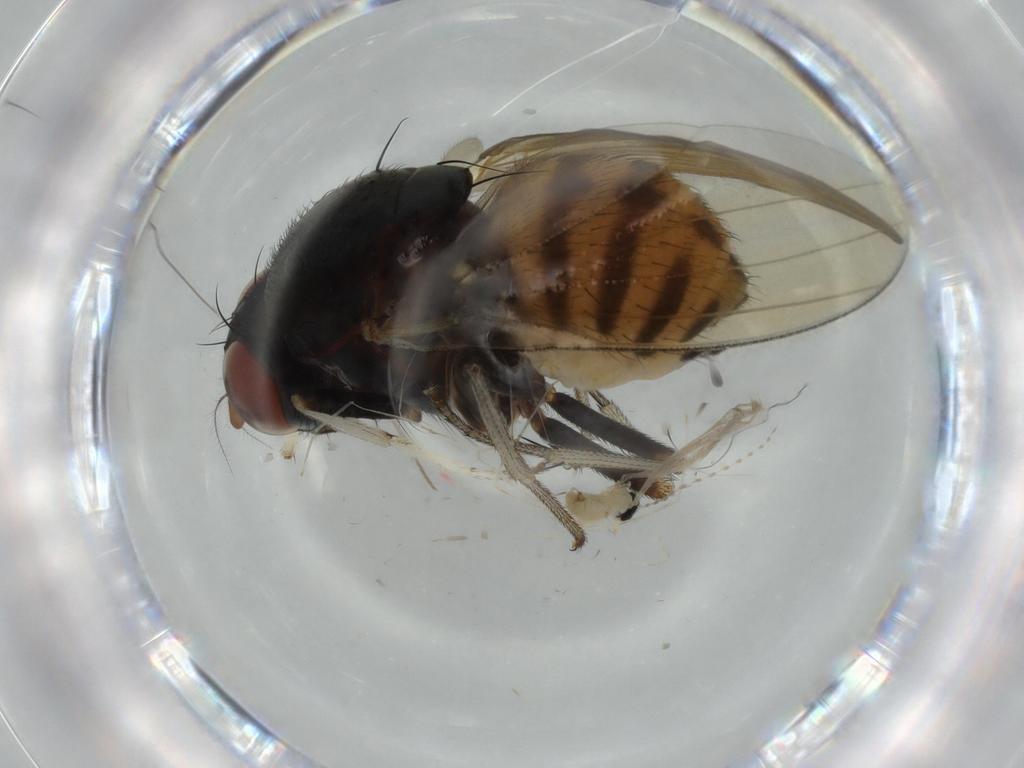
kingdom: Animalia
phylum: Arthropoda
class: Insecta
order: Diptera
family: Cecidomyiidae
